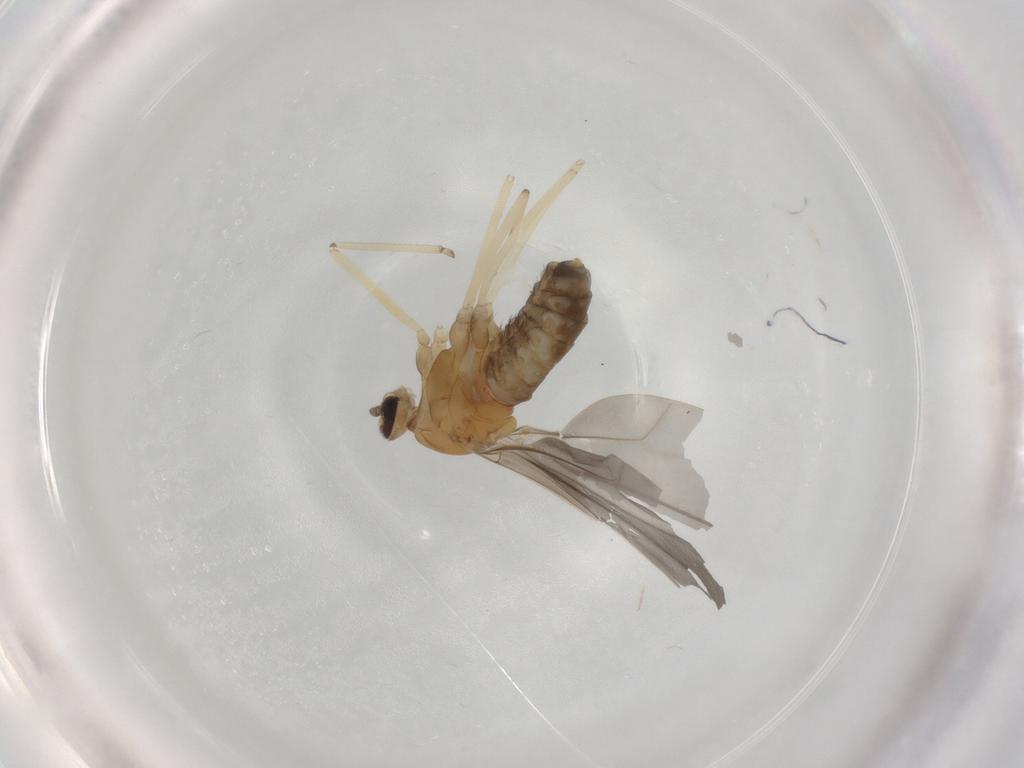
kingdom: Animalia
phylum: Arthropoda
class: Insecta
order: Diptera
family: Cecidomyiidae
